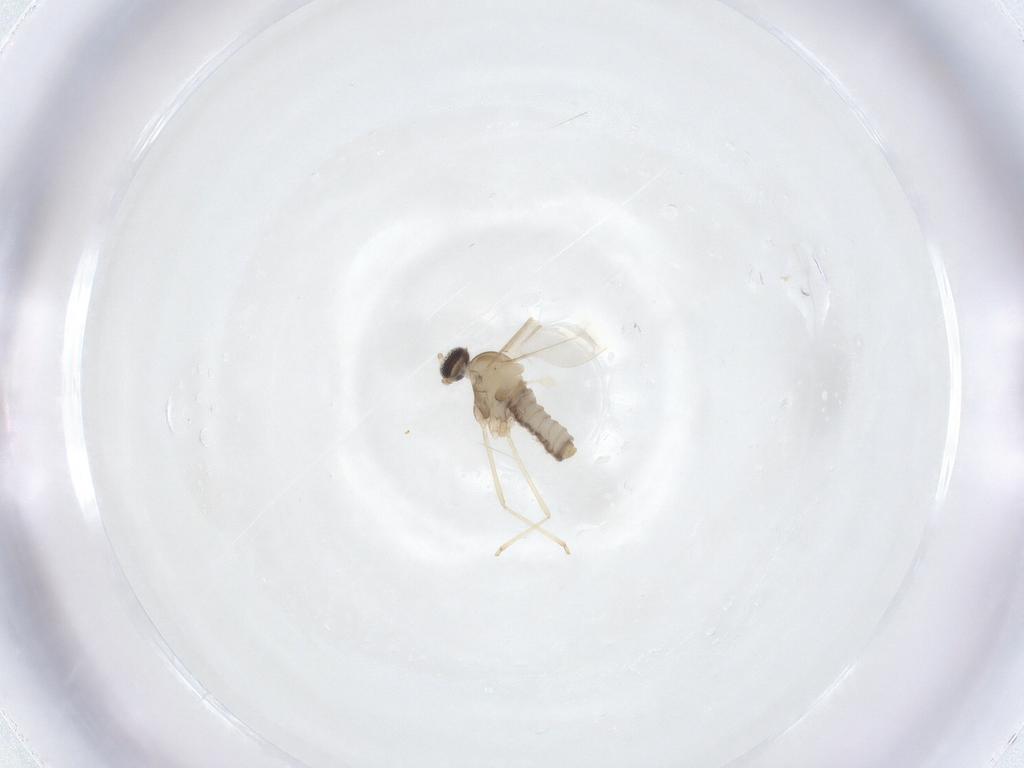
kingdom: Animalia
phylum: Arthropoda
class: Insecta
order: Diptera
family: Cecidomyiidae
